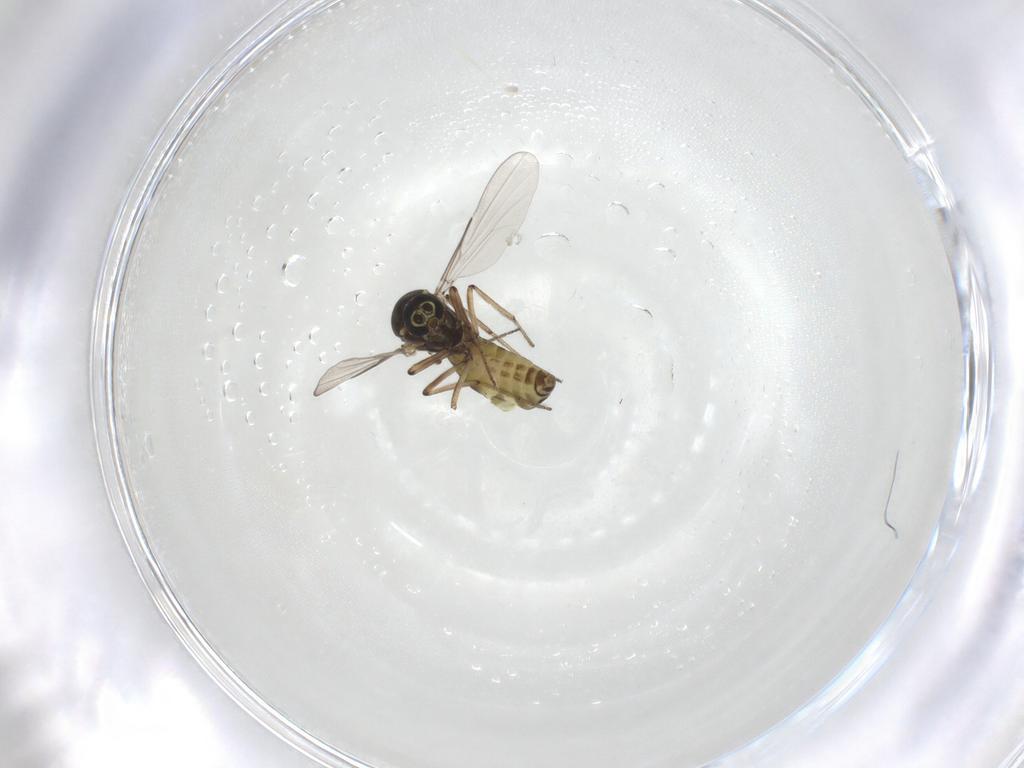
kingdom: Animalia
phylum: Arthropoda
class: Insecta
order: Diptera
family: Ceratopogonidae
